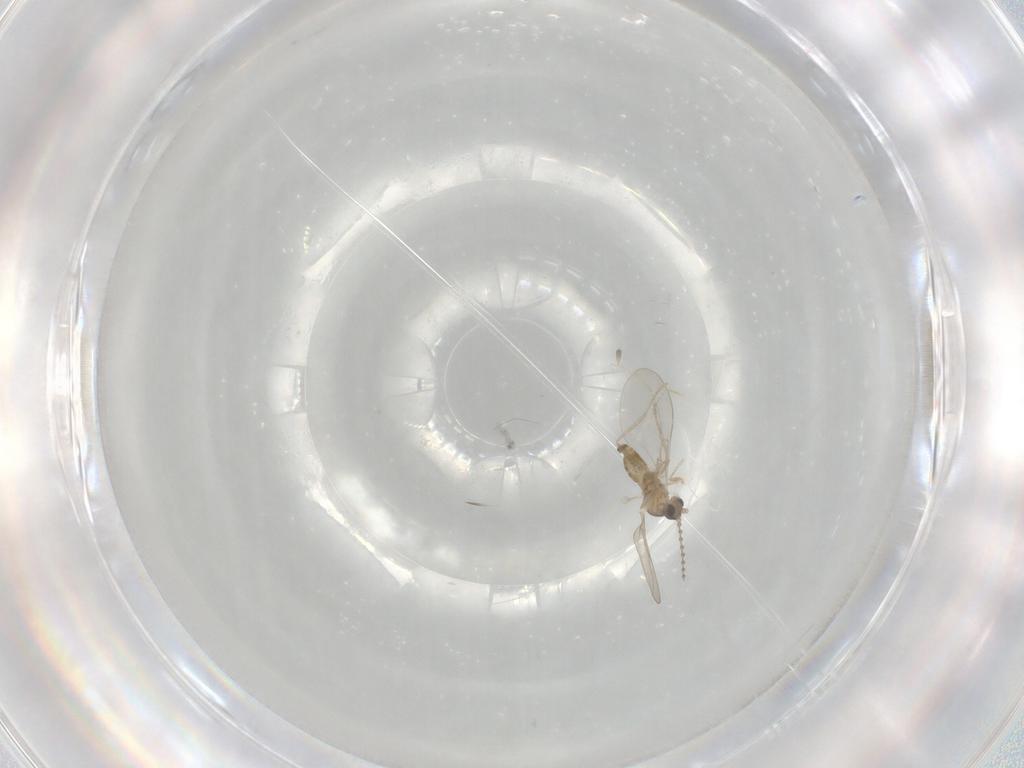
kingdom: Animalia
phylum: Arthropoda
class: Insecta
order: Diptera
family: Cecidomyiidae
